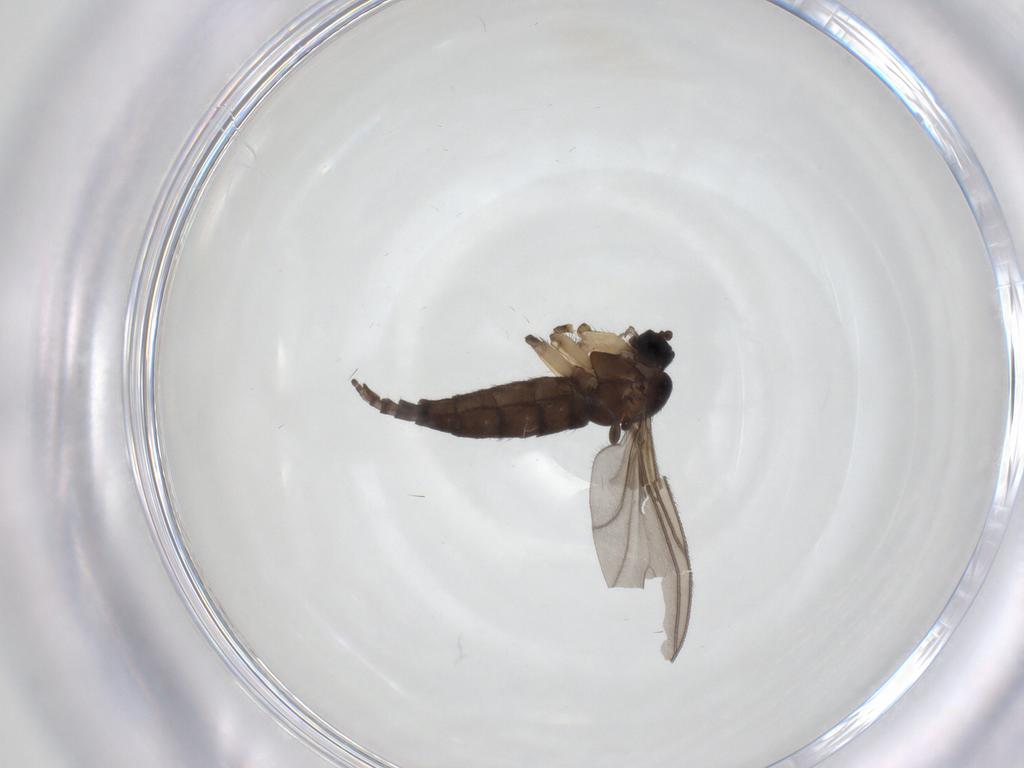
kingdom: Animalia
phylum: Arthropoda
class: Insecta
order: Diptera
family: Sciaridae
